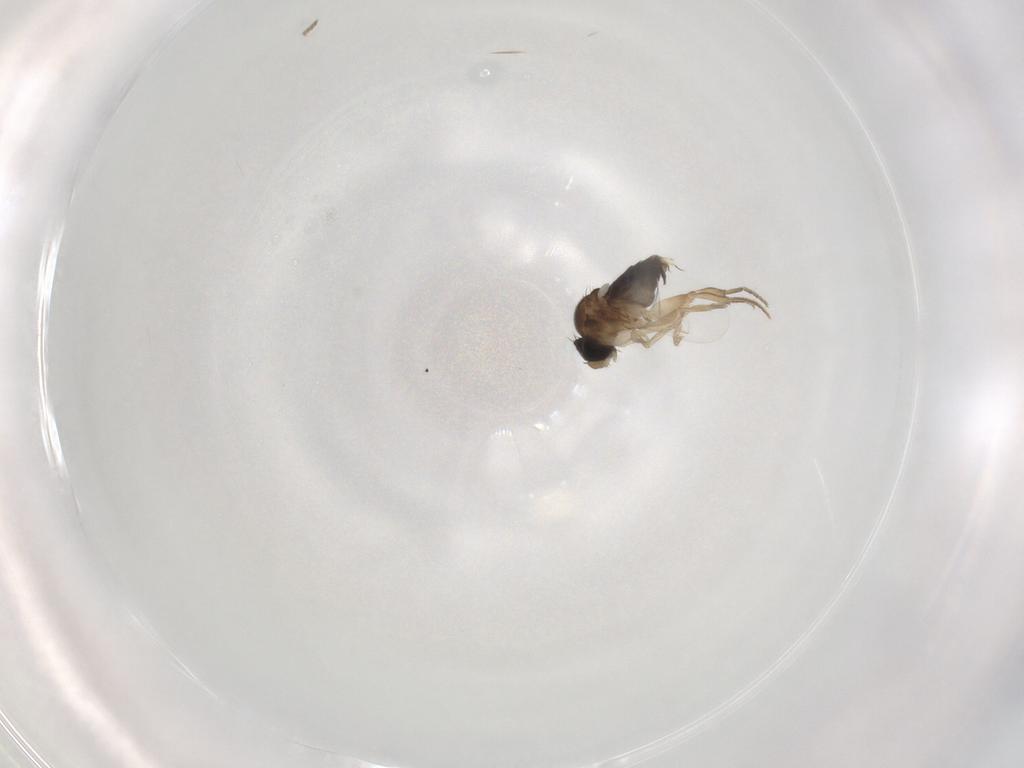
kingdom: Animalia
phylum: Arthropoda
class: Insecta
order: Diptera
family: Phoridae
